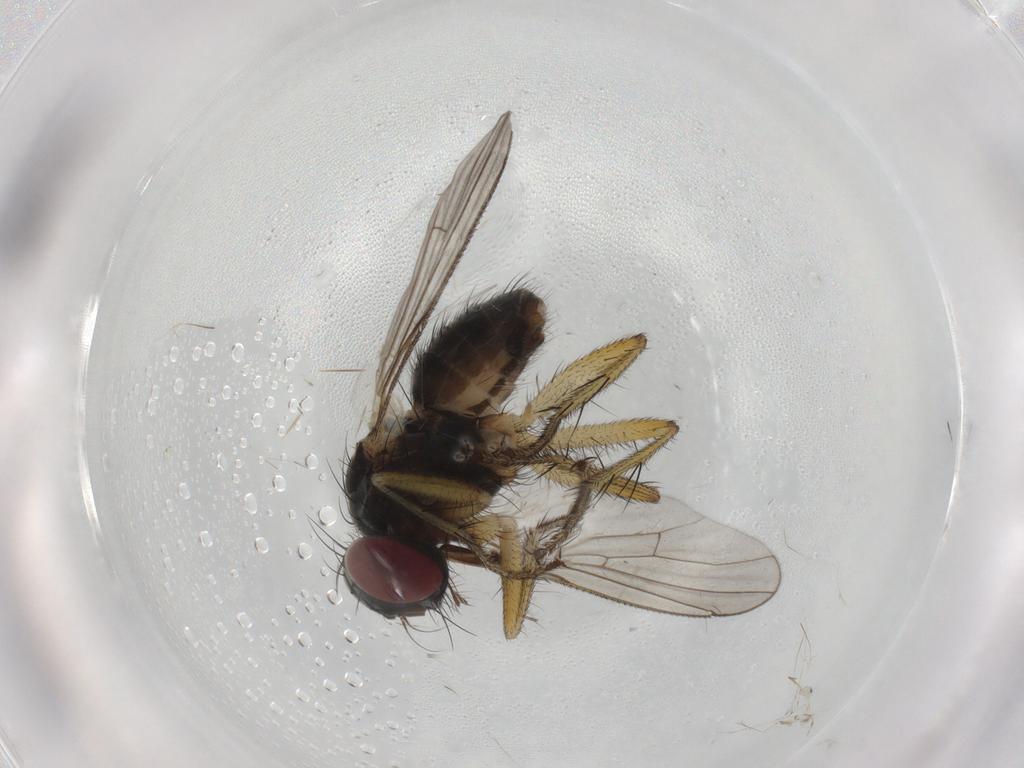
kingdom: Animalia
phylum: Arthropoda
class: Insecta
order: Diptera
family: Muscidae
